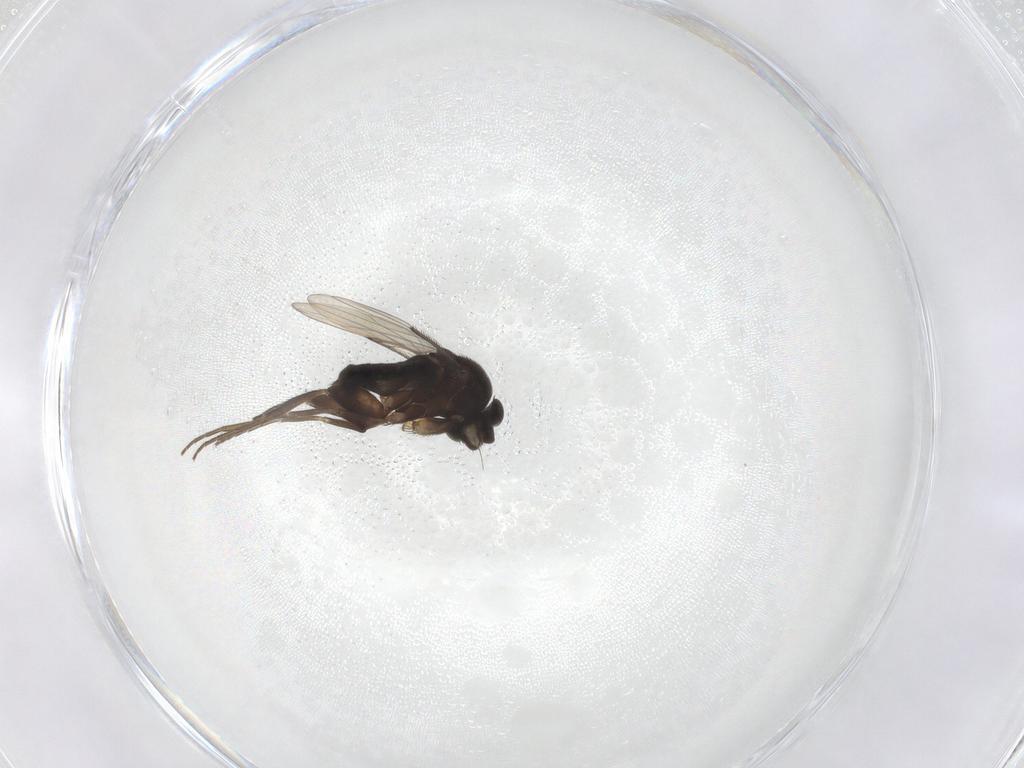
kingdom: Animalia
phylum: Arthropoda
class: Insecta
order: Diptera
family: Phoridae
